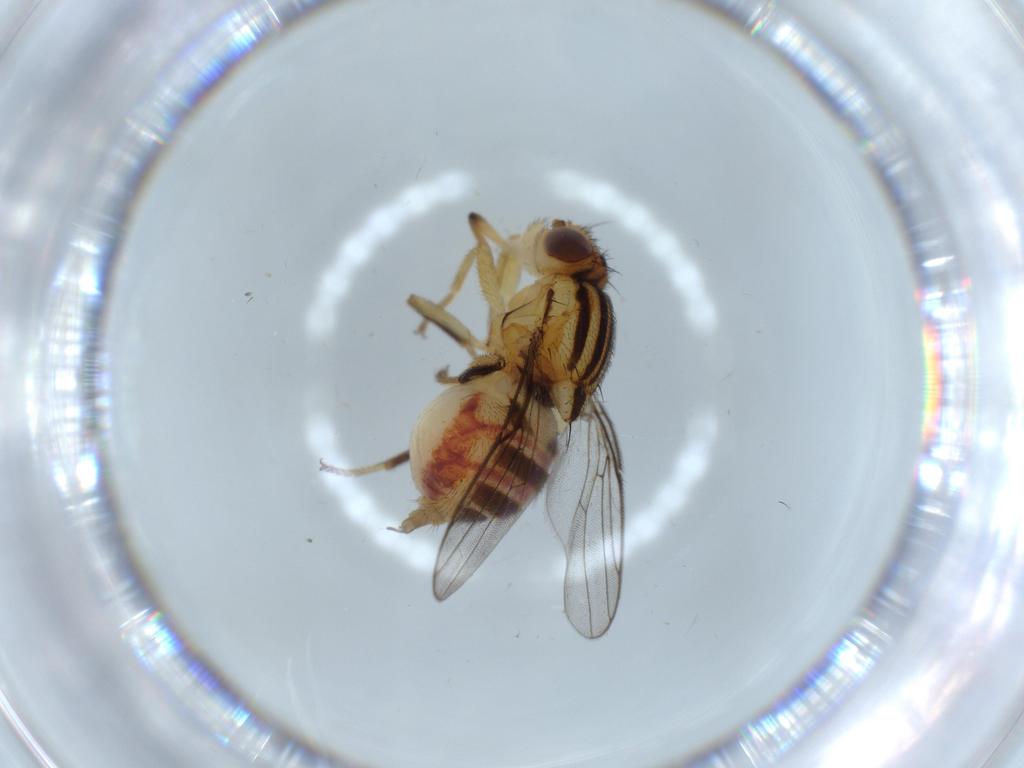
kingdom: Animalia
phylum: Arthropoda
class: Insecta
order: Diptera
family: Chloropidae
